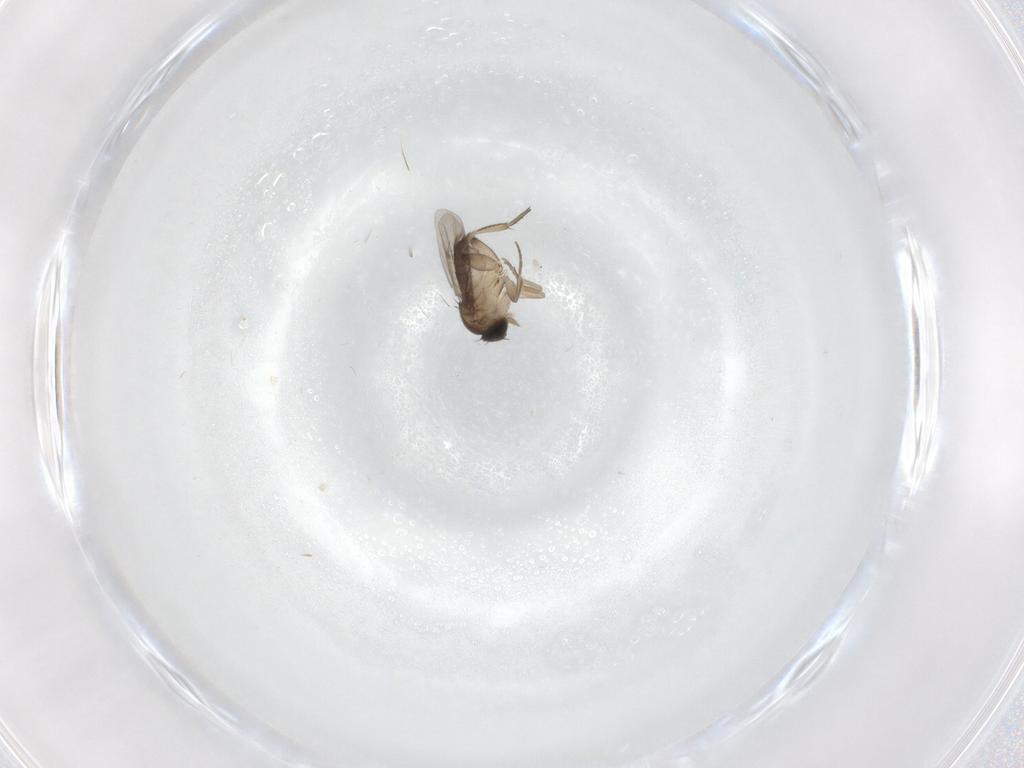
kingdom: Animalia
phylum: Arthropoda
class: Insecta
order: Diptera
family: Phoridae
